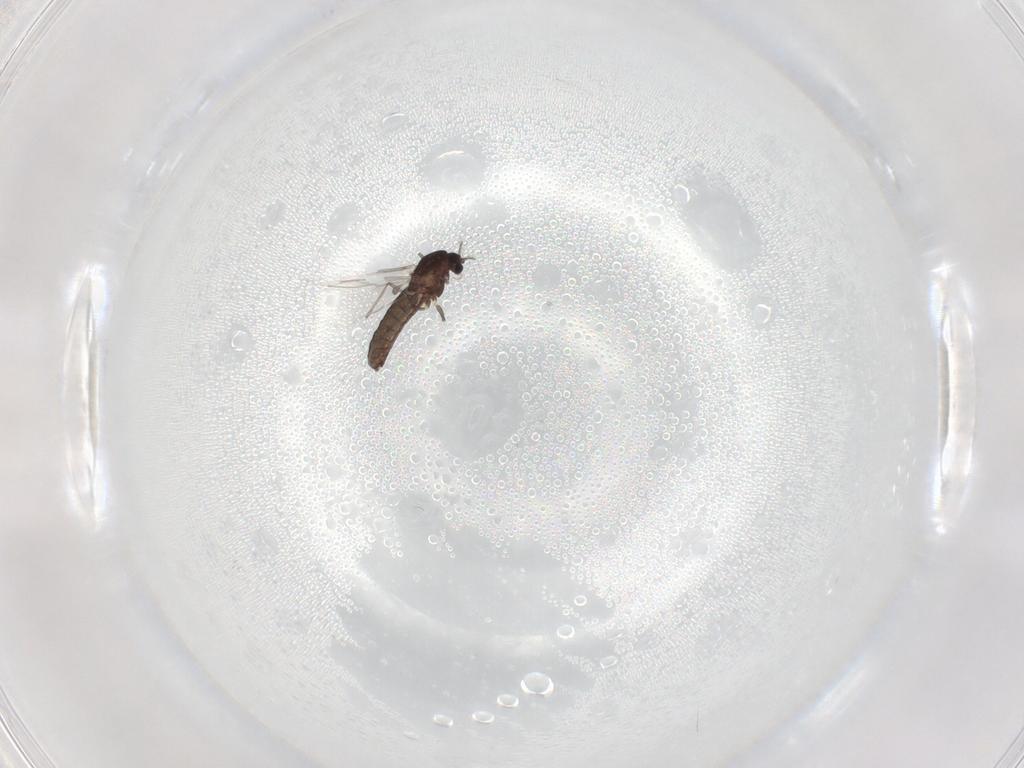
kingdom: Animalia
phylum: Arthropoda
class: Insecta
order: Diptera
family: Chironomidae
